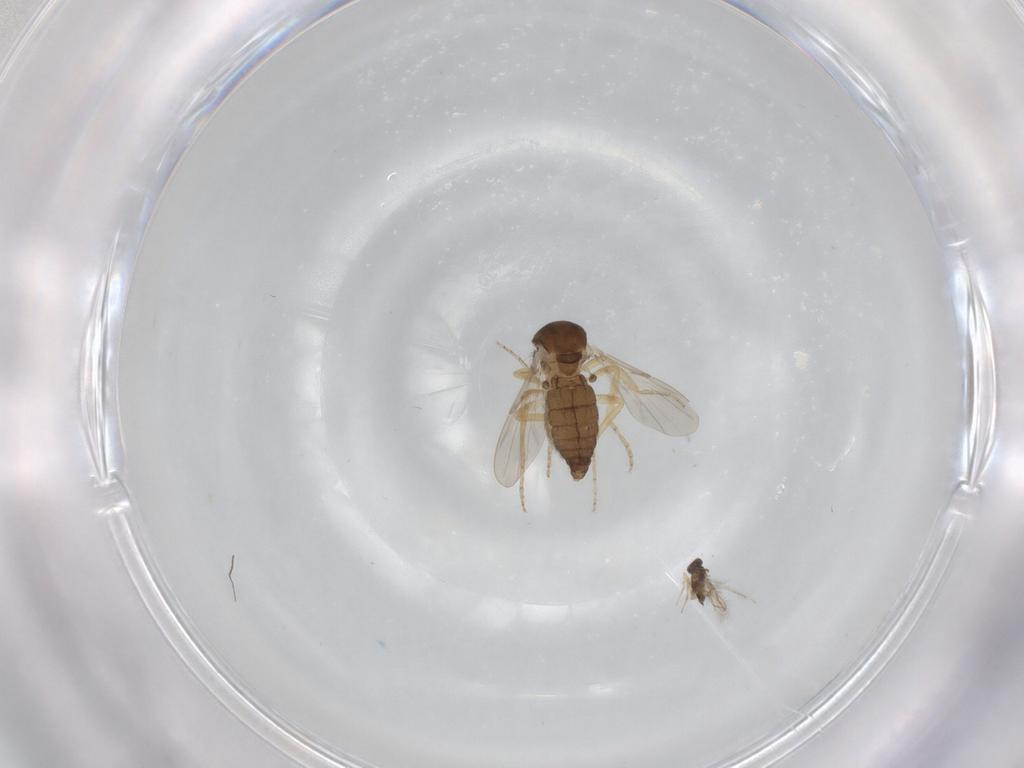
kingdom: Animalia
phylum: Arthropoda
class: Insecta
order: Diptera
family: Ceratopogonidae
